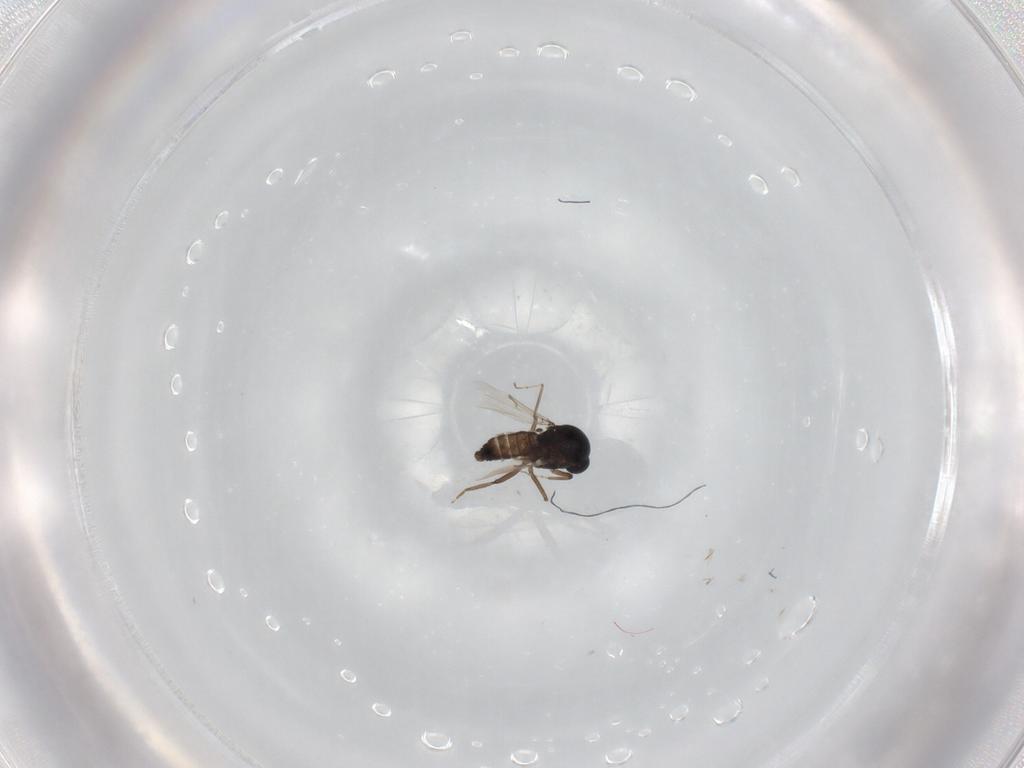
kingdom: Animalia
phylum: Arthropoda
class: Insecta
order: Diptera
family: Ceratopogonidae
